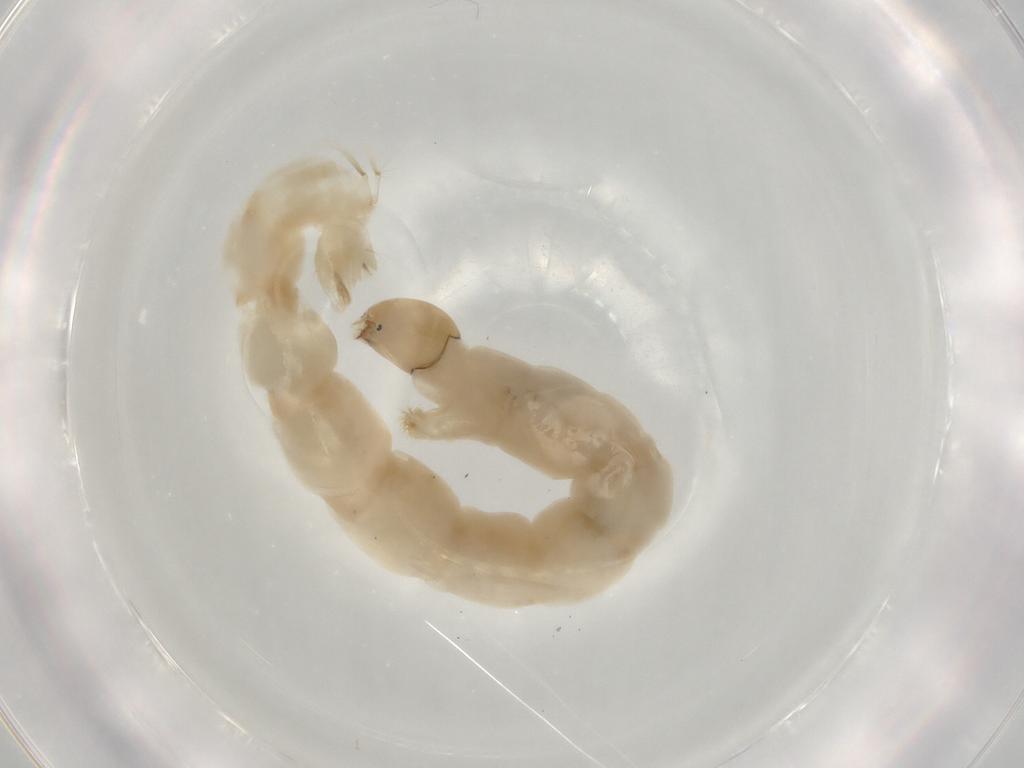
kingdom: Animalia
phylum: Arthropoda
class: Insecta
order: Diptera
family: Chironomidae
